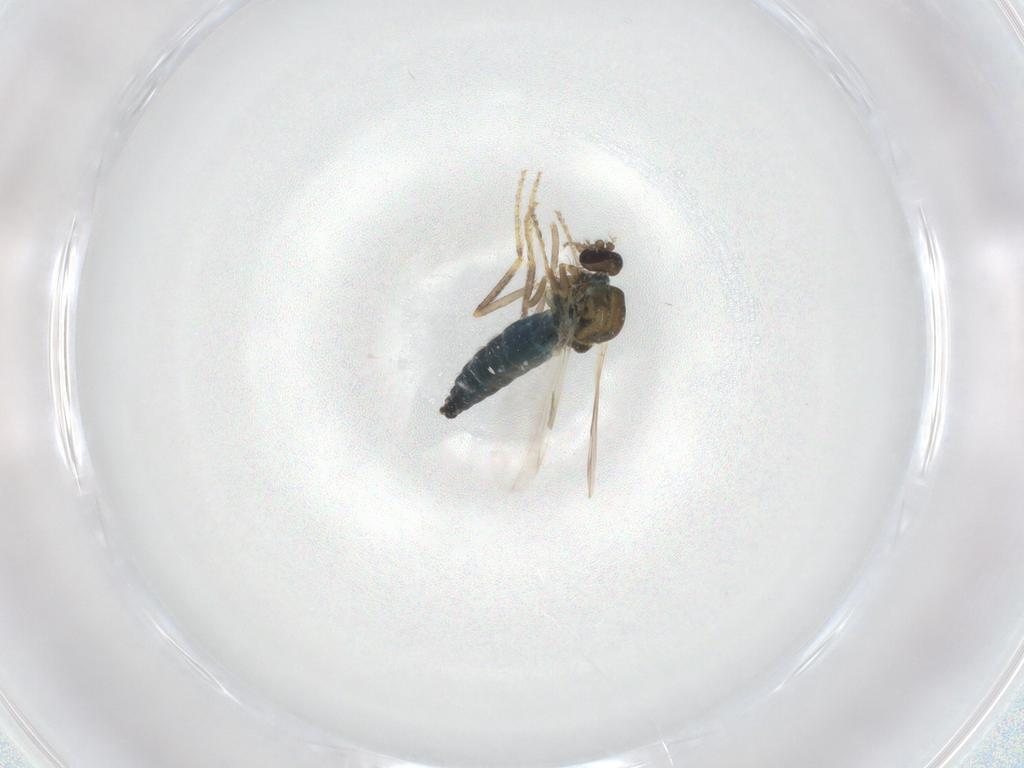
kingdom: Animalia
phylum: Arthropoda
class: Insecta
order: Diptera
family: Ceratopogonidae
